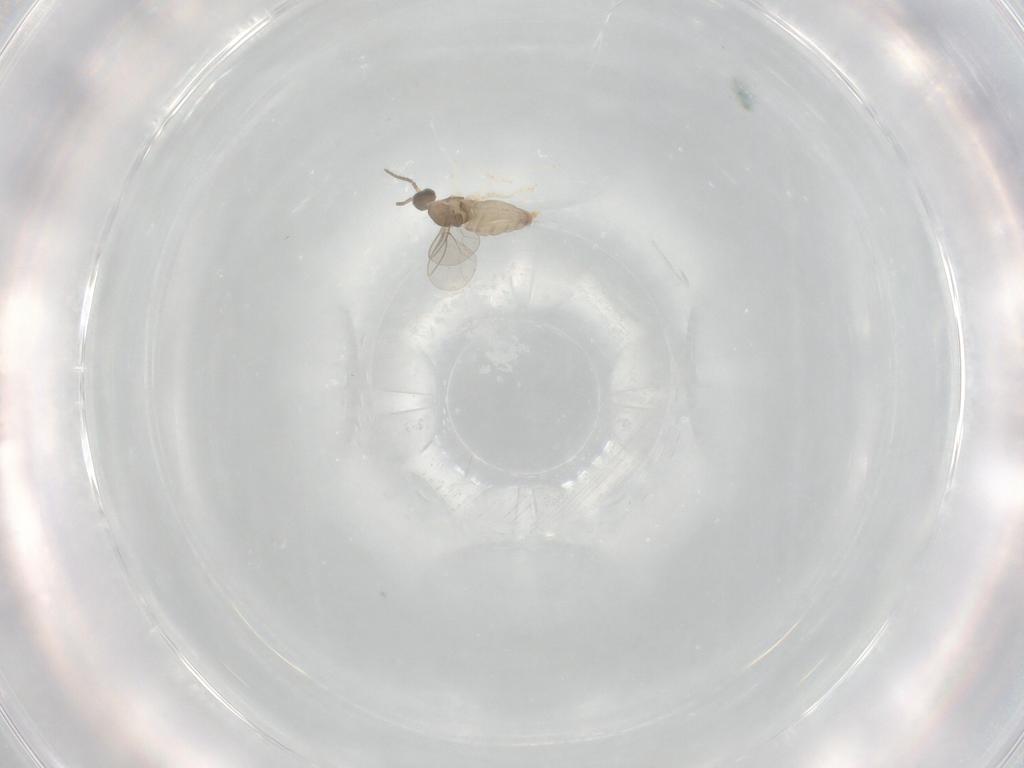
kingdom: Animalia
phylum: Arthropoda
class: Insecta
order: Diptera
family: Cecidomyiidae
